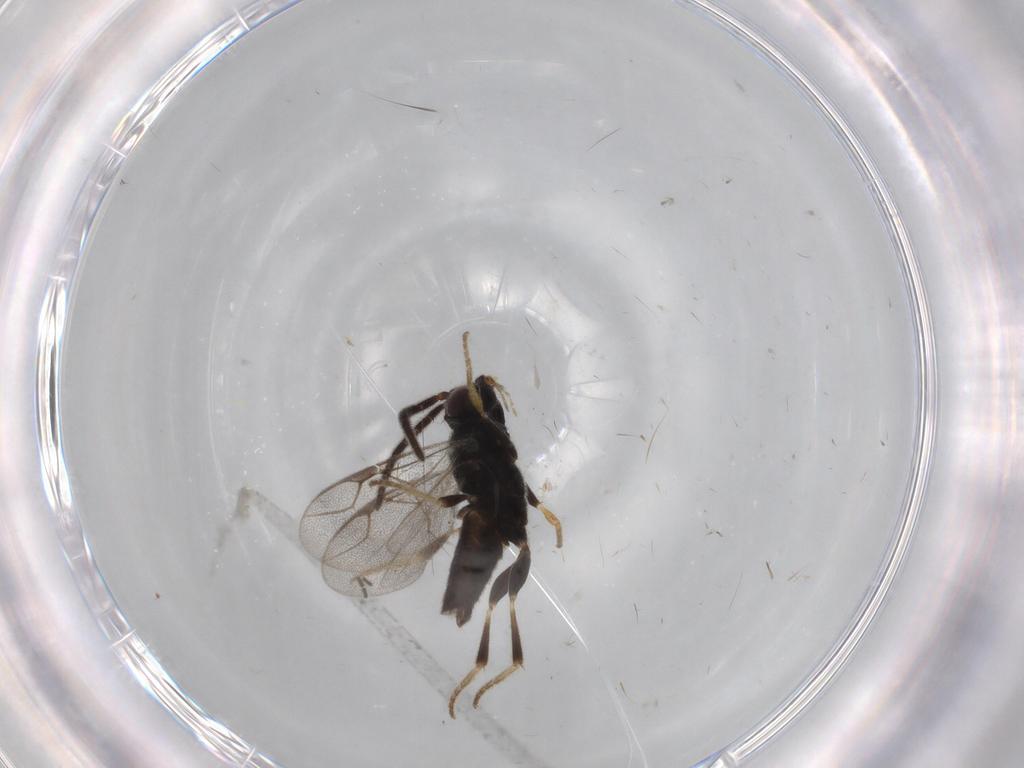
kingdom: Animalia
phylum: Arthropoda
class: Insecta
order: Hymenoptera
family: Dryinidae
